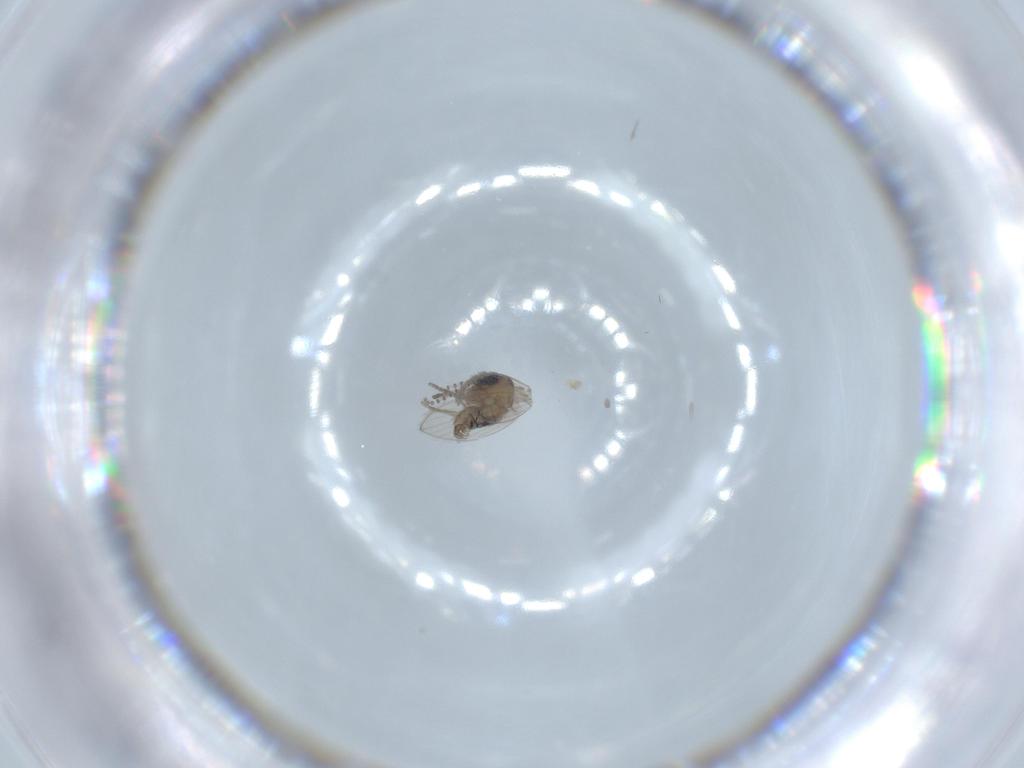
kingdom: Animalia
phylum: Arthropoda
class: Insecta
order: Diptera
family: Psychodidae
